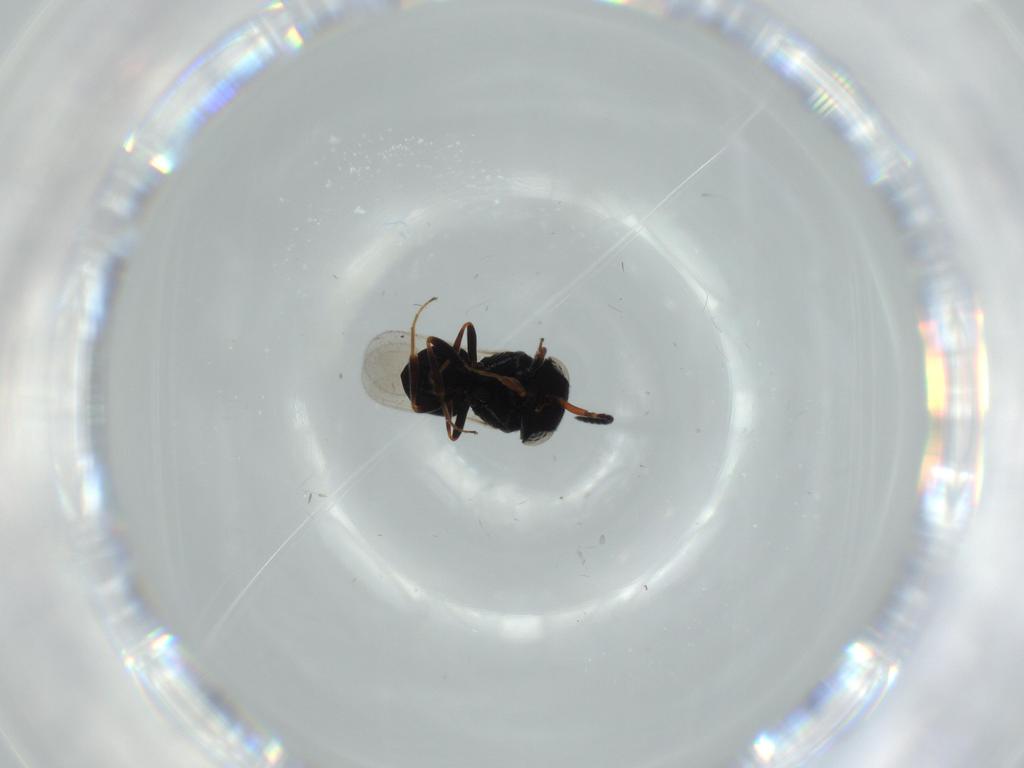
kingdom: Animalia
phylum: Arthropoda
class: Insecta
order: Hymenoptera
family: Scelionidae
